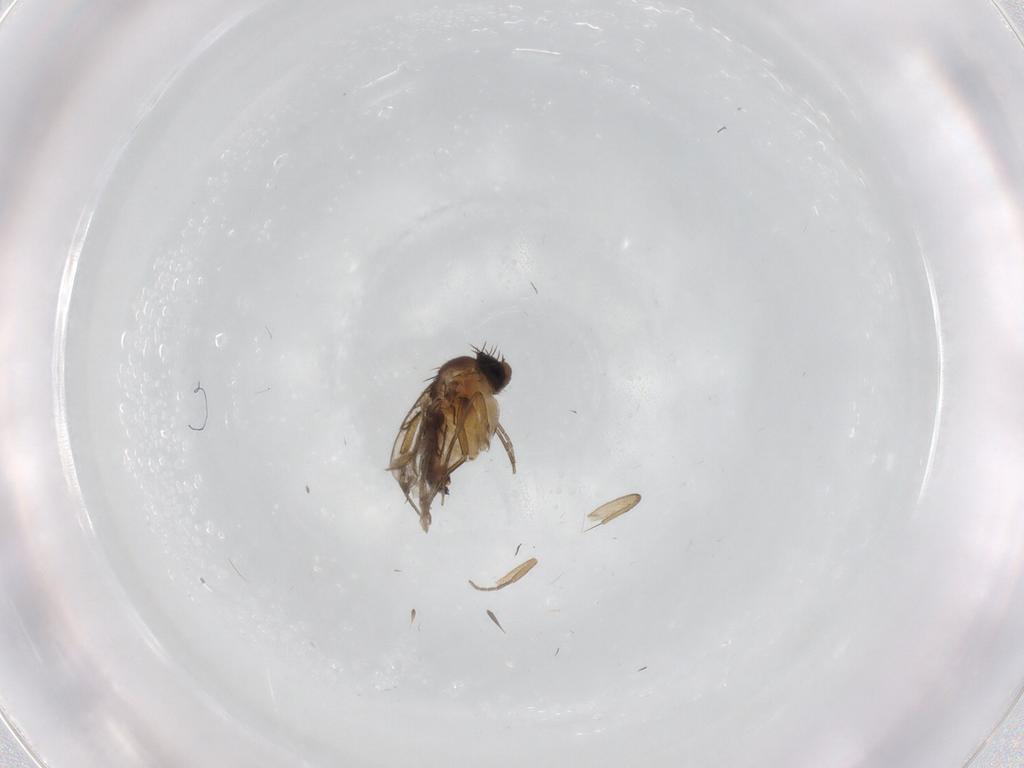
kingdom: Animalia
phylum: Arthropoda
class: Insecta
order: Diptera
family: Phoridae
